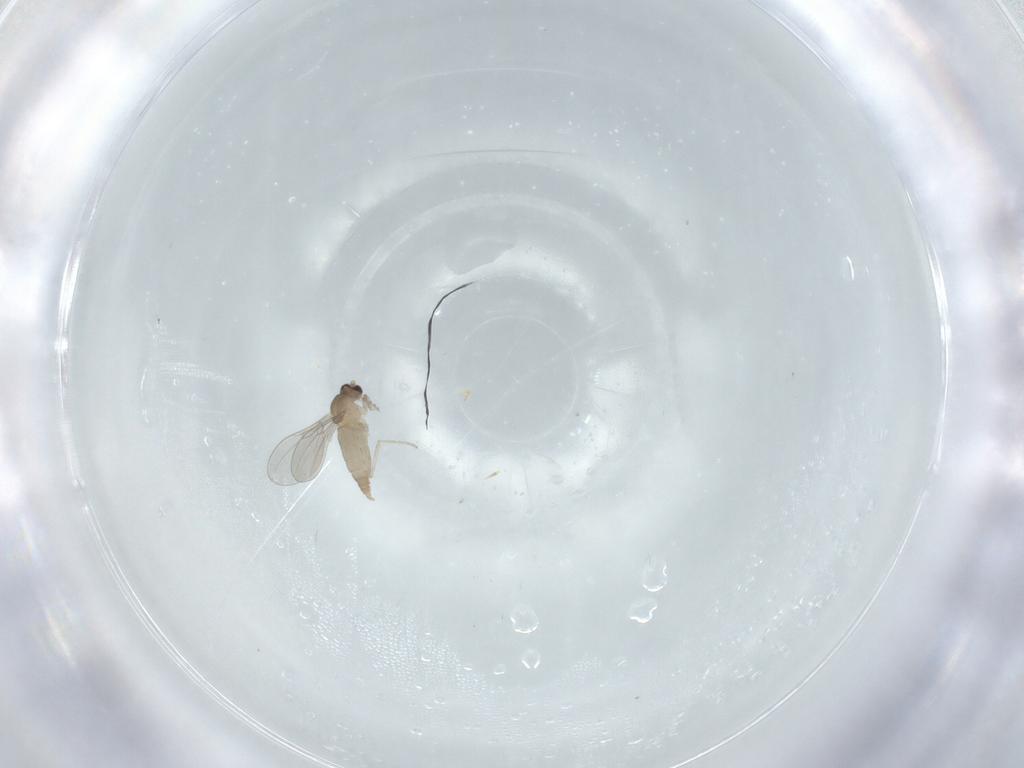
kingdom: Animalia
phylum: Arthropoda
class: Insecta
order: Diptera
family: Cecidomyiidae
